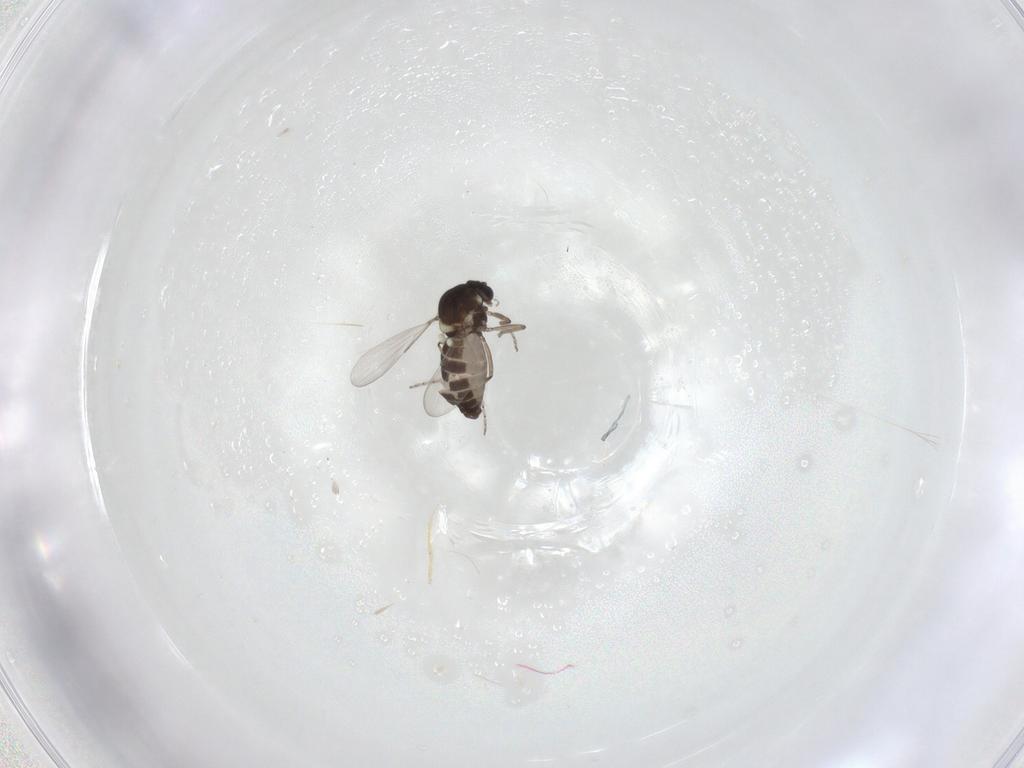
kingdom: Animalia
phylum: Arthropoda
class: Insecta
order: Diptera
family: Ceratopogonidae
